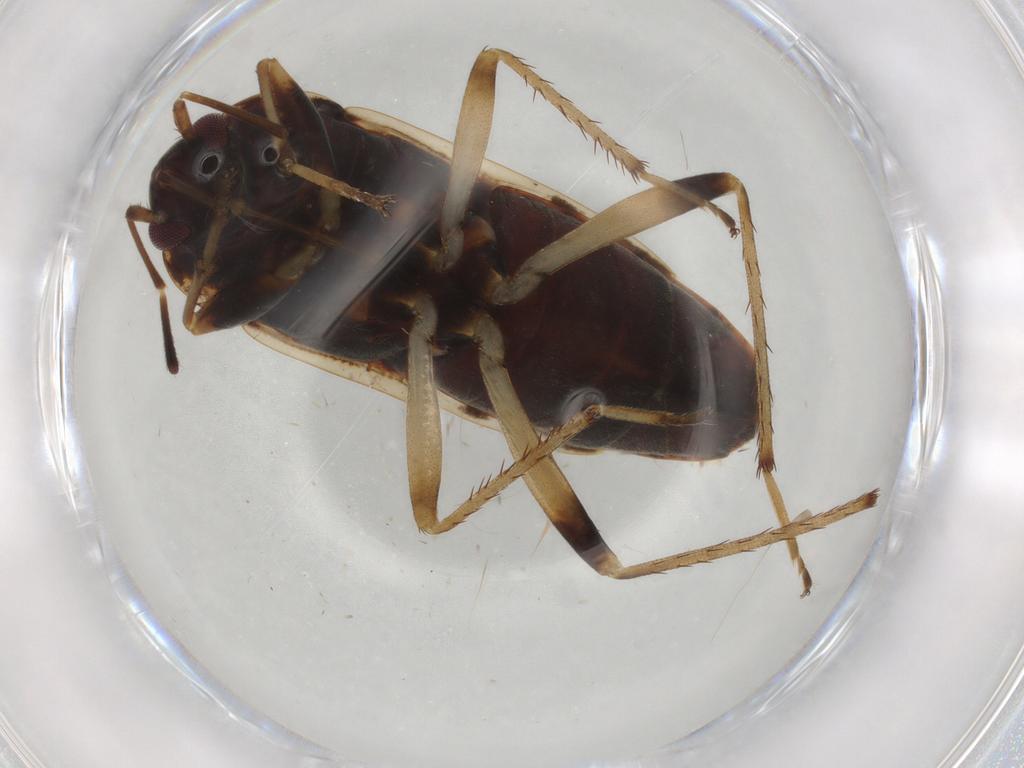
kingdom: Animalia
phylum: Arthropoda
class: Insecta
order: Hemiptera
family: Rhyparochromidae
